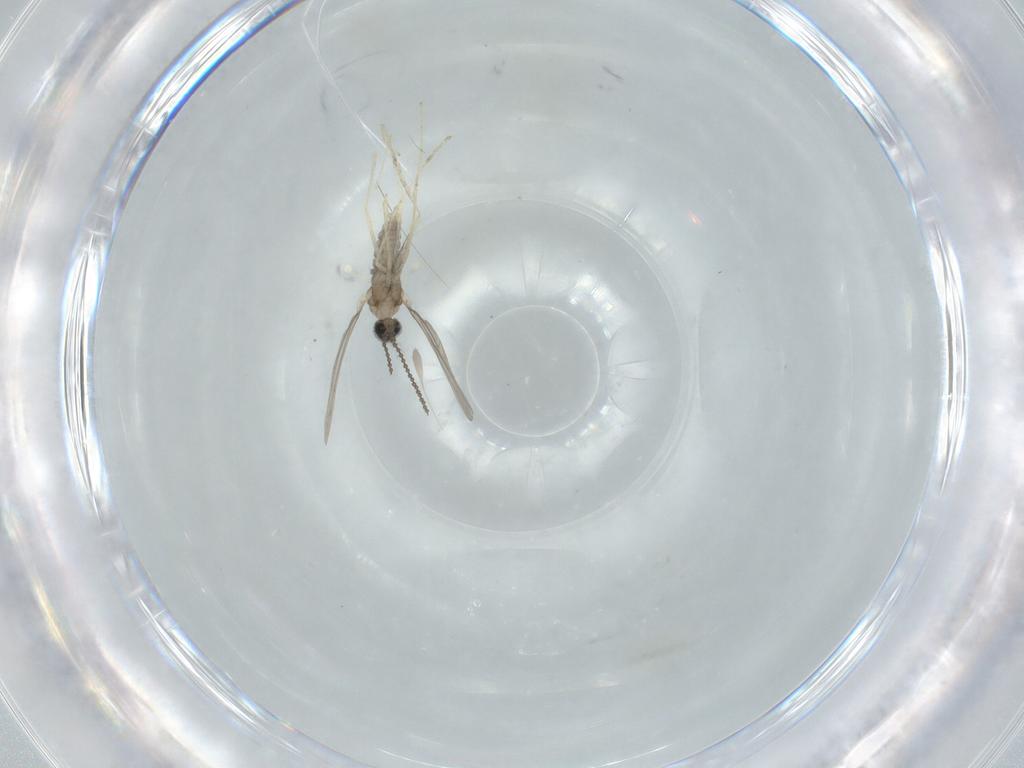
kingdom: Animalia
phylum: Arthropoda
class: Insecta
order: Diptera
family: Cecidomyiidae
